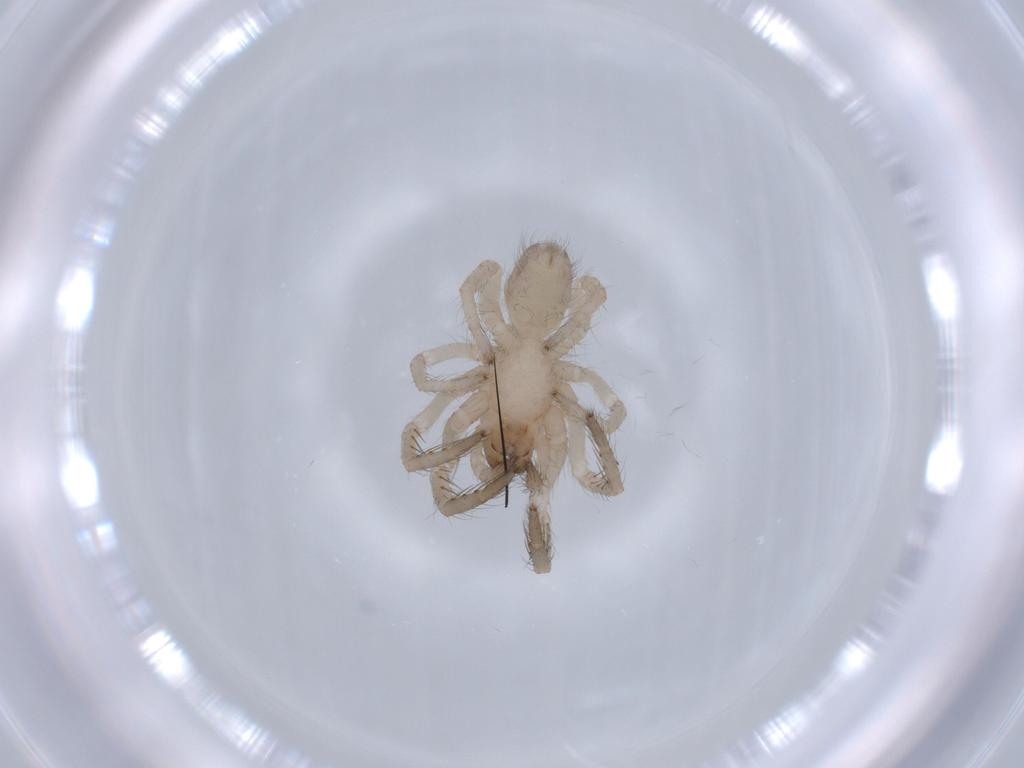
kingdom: Animalia
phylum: Arthropoda
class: Arachnida
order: Araneae
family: Segestriidae
